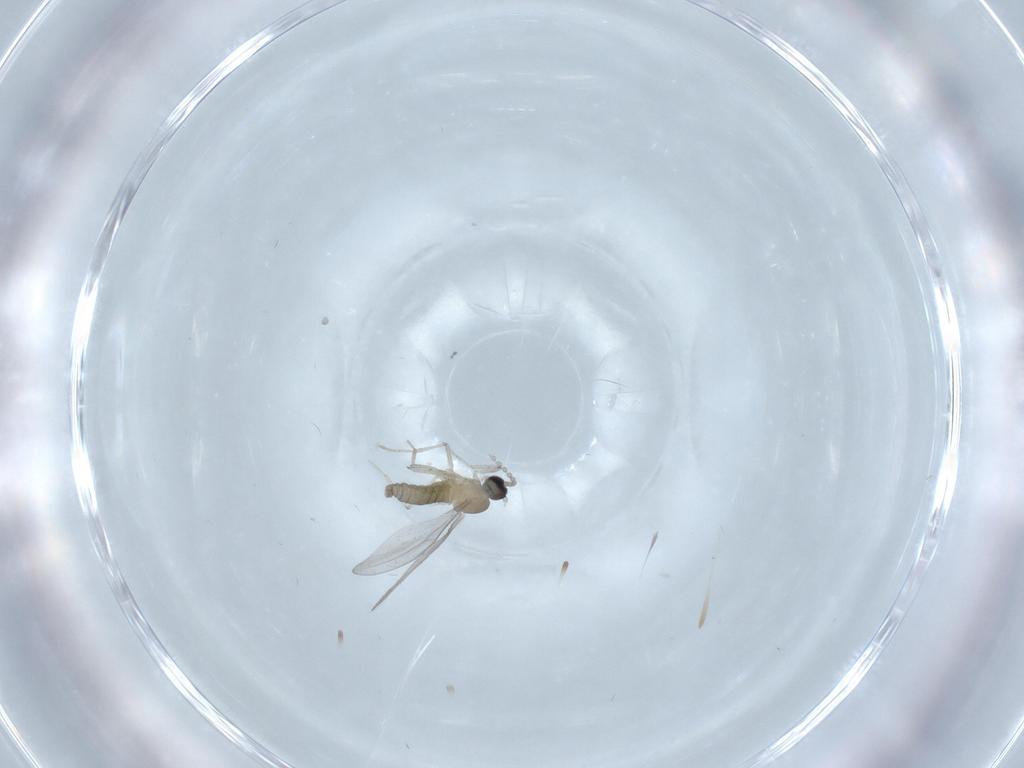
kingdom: Animalia
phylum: Arthropoda
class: Insecta
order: Diptera
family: Cecidomyiidae
